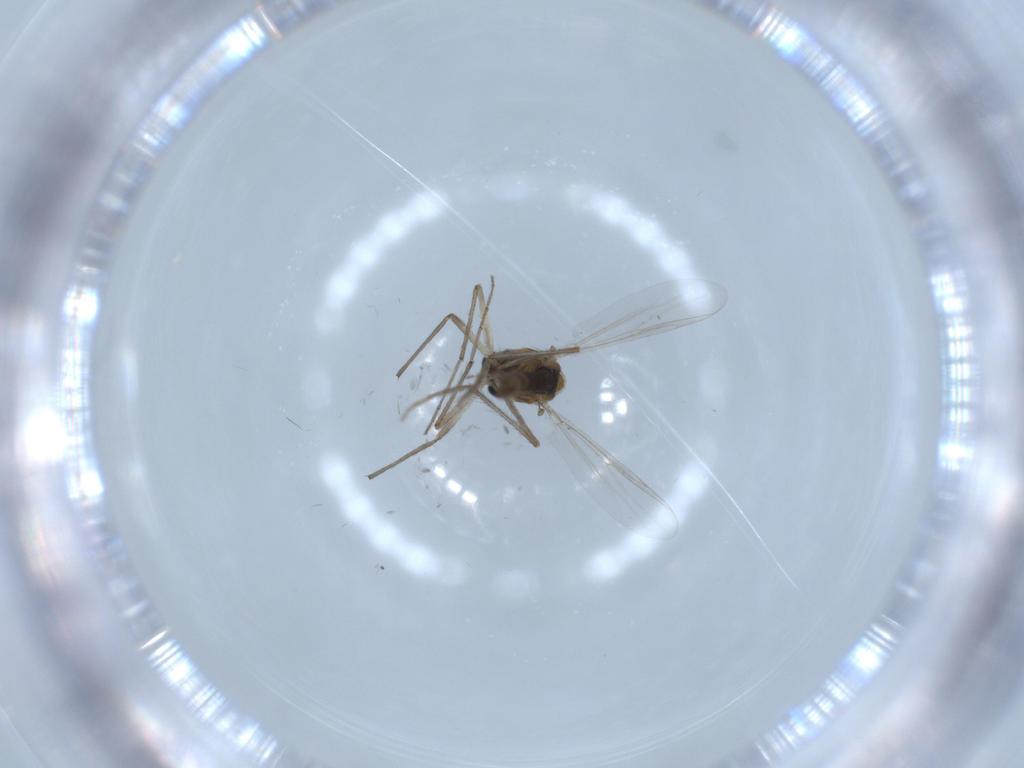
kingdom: Animalia
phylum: Arthropoda
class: Insecta
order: Diptera
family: Chironomidae
